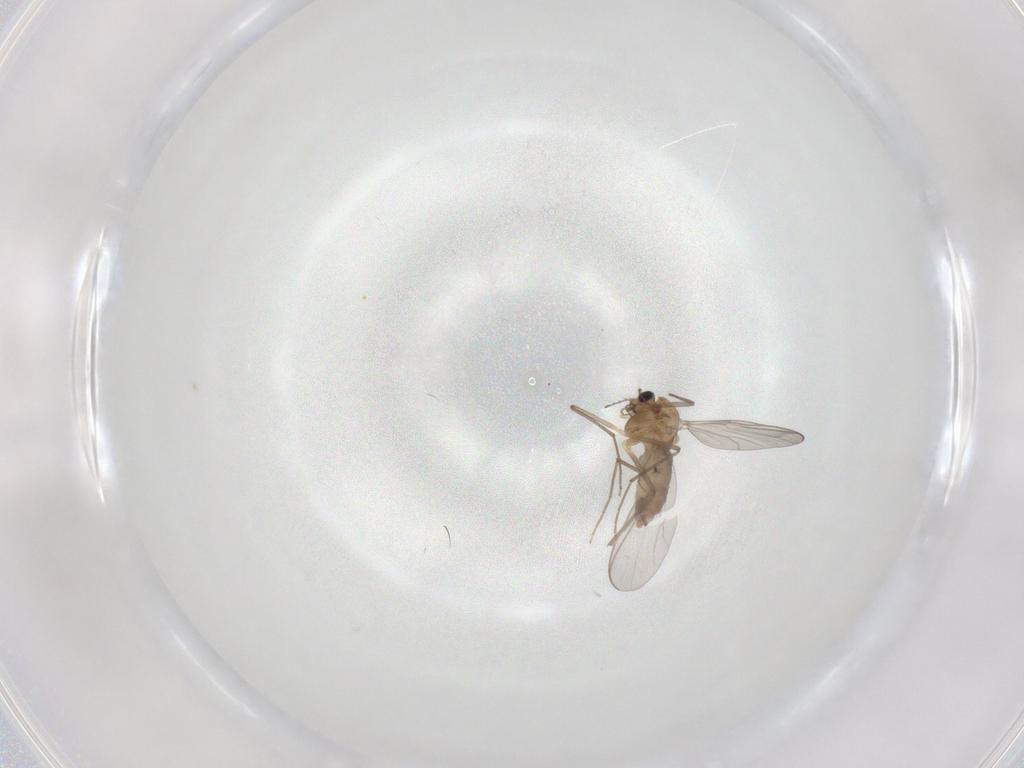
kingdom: Animalia
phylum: Arthropoda
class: Insecta
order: Diptera
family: Chironomidae
